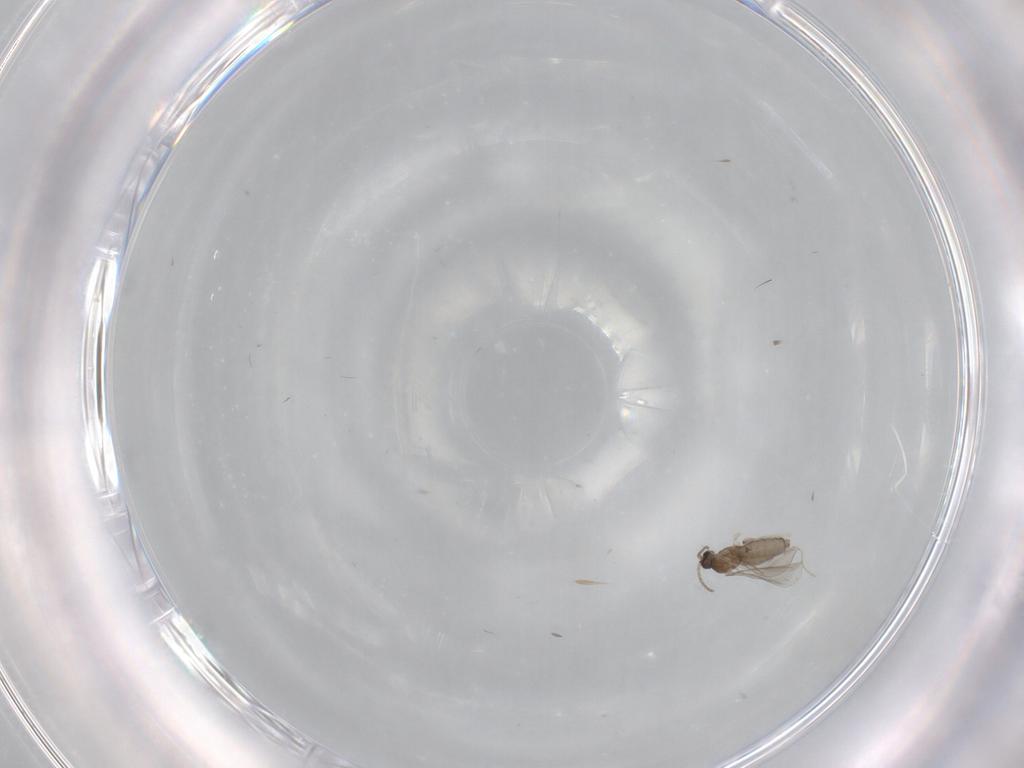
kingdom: Animalia
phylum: Arthropoda
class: Insecta
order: Diptera
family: Cecidomyiidae
